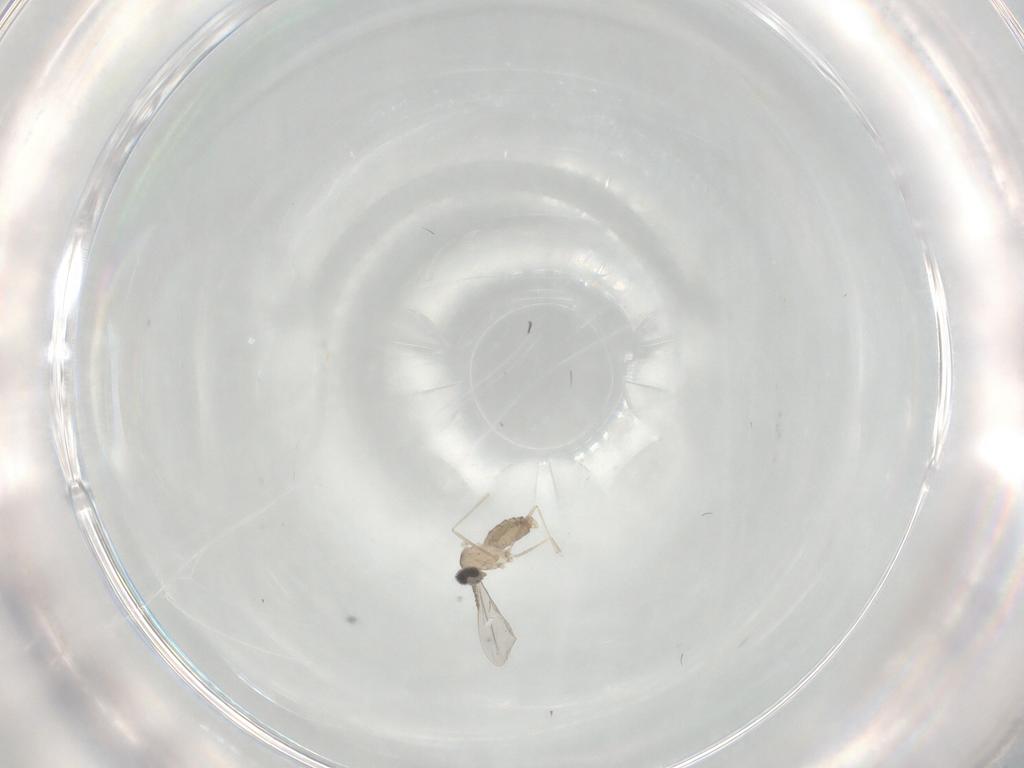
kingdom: Animalia
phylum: Arthropoda
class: Insecta
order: Diptera
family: Cecidomyiidae
